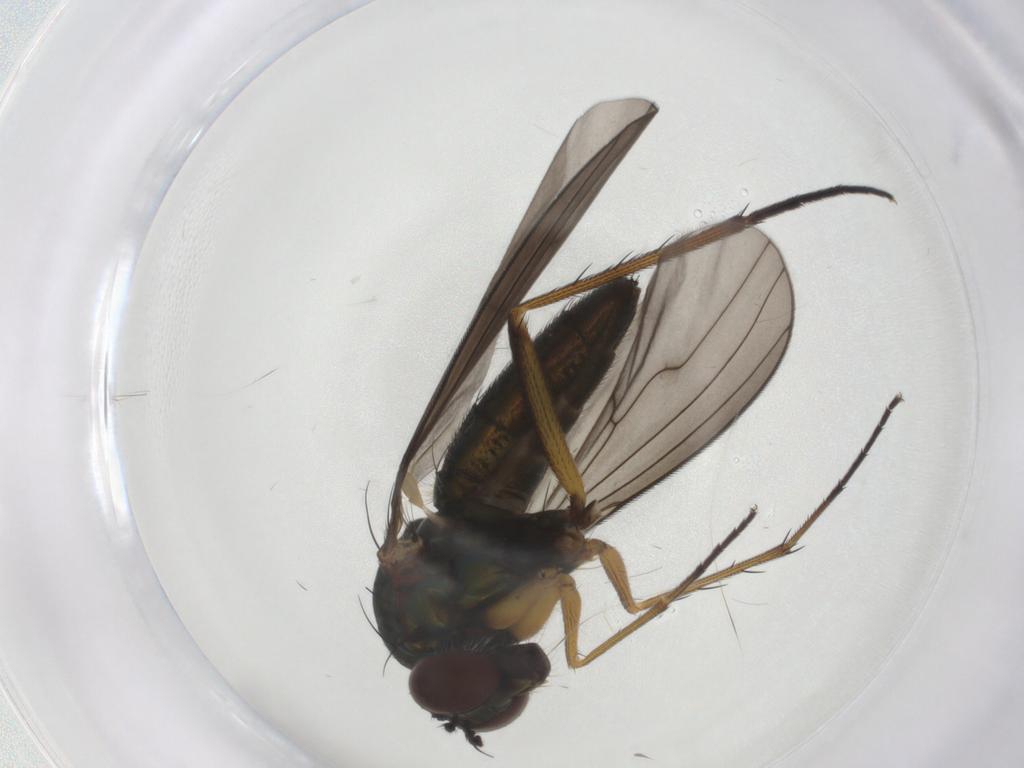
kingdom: Animalia
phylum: Arthropoda
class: Insecta
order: Diptera
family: Dolichopodidae
